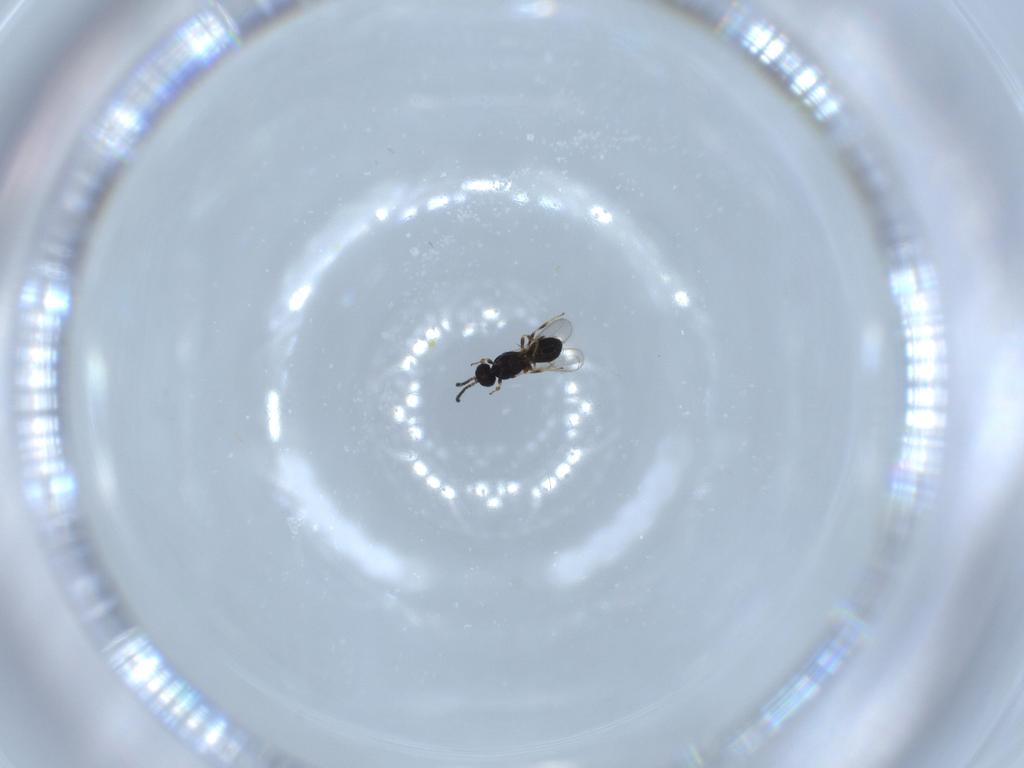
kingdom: Animalia
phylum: Arthropoda
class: Insecta
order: Hymenoptera
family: Scelionidae
